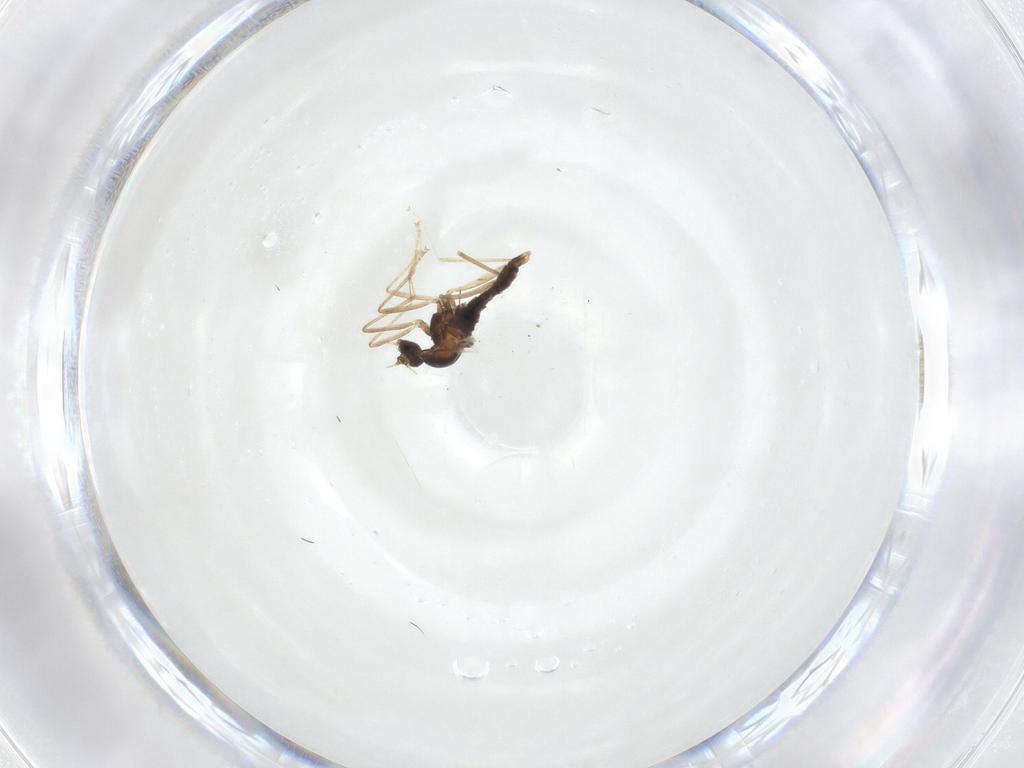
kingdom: Animalia
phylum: Arthropoda
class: Insecta
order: Diptera
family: Cecidomyiidae
